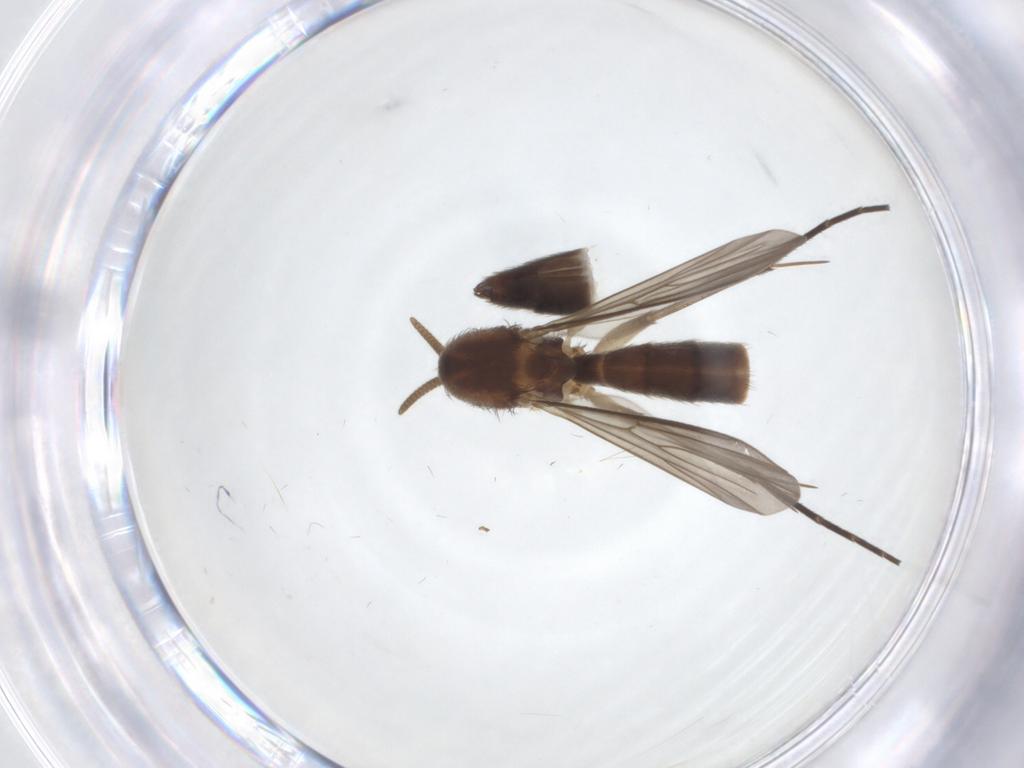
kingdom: Animalia
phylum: Arthropoda
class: Insecta
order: Diptera
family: Mycetophilidae
